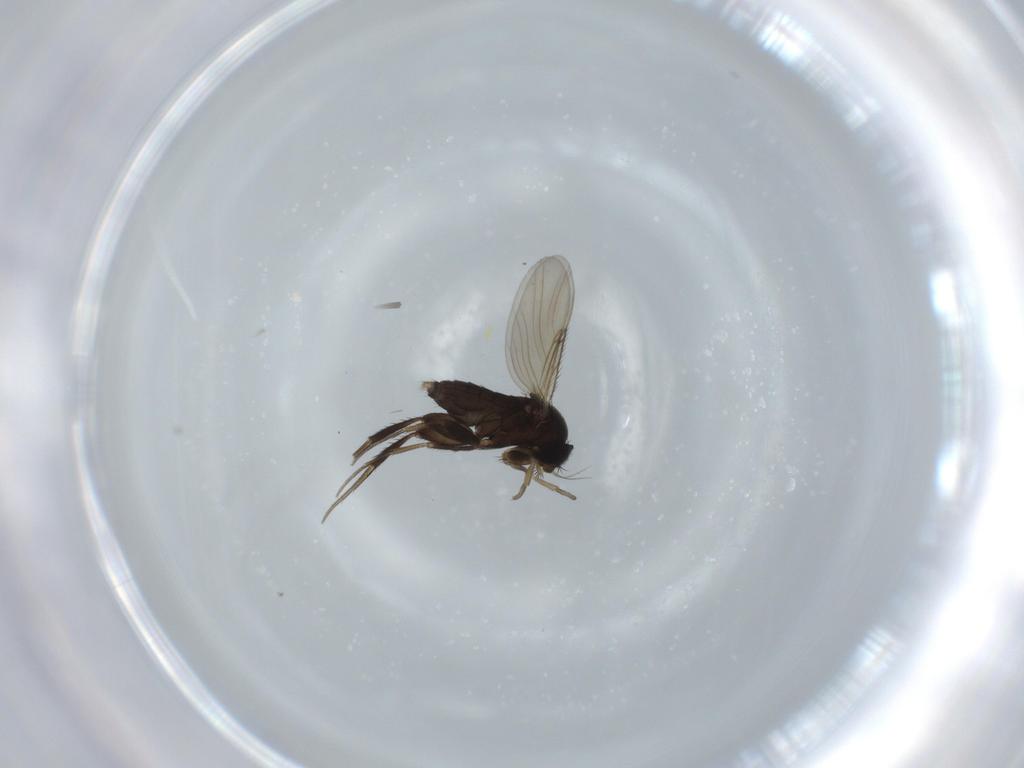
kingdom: Animalia
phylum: Arthropoda
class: Insecta
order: Diptera
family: Phoridae
